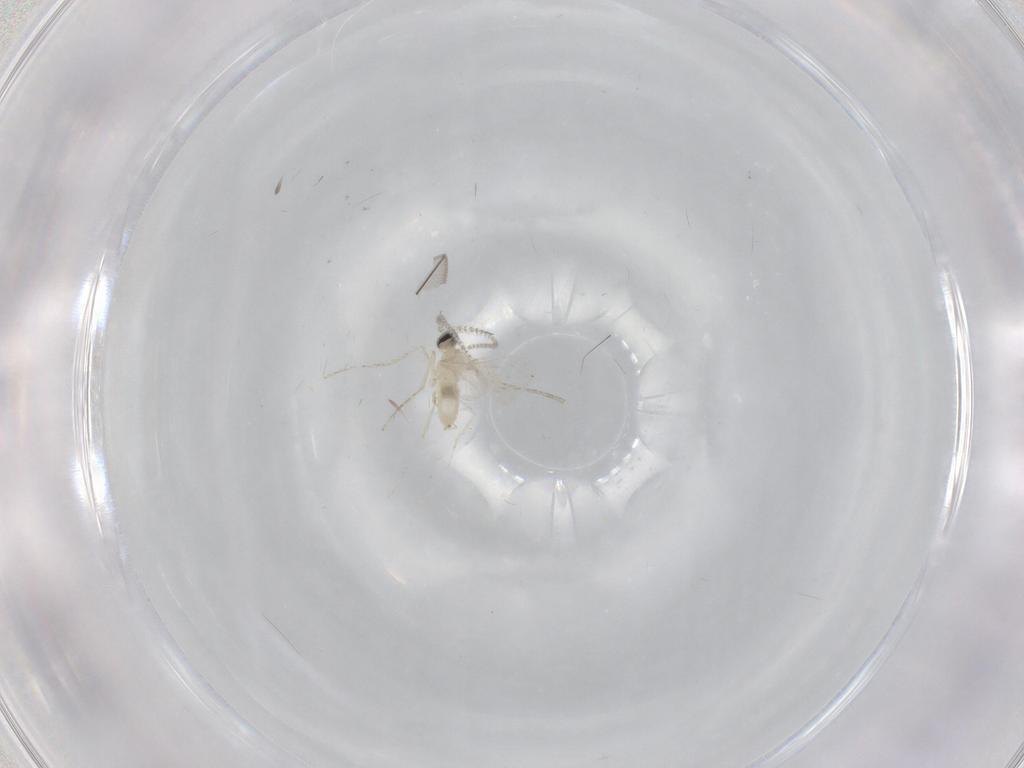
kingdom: Animalia
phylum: Arthropoda
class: Insecta
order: Diptera
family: Cecidomyiidae
